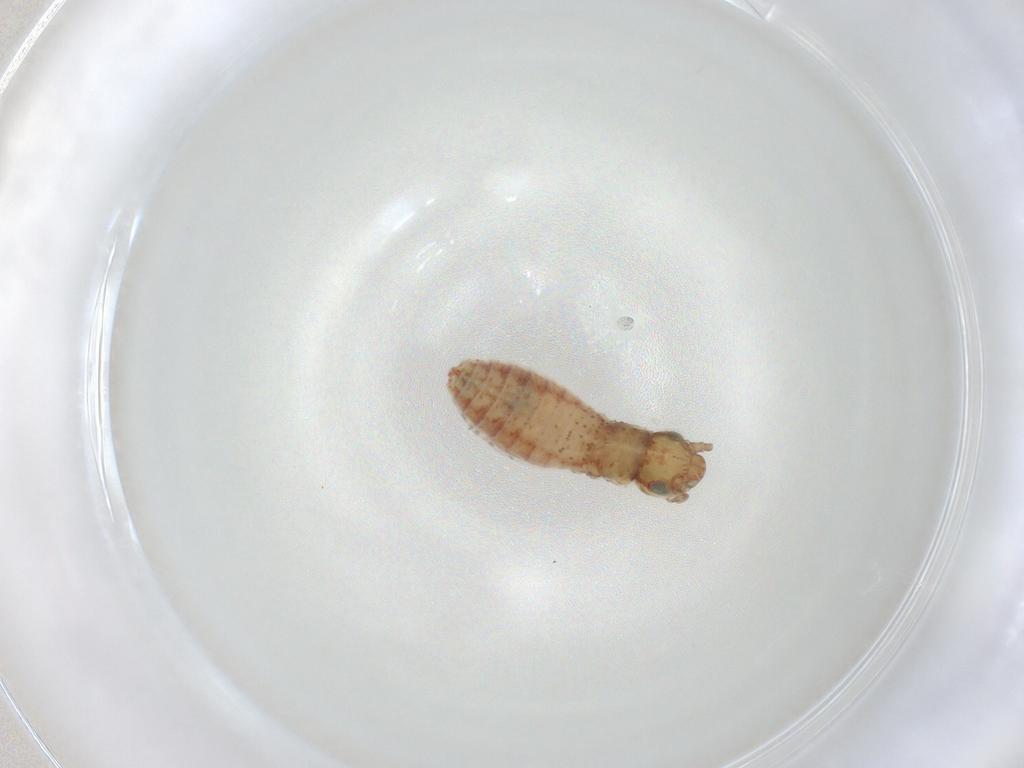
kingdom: Animalia
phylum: Arthropoda
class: Insecta
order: Orthoptera
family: Mogoplistidae
